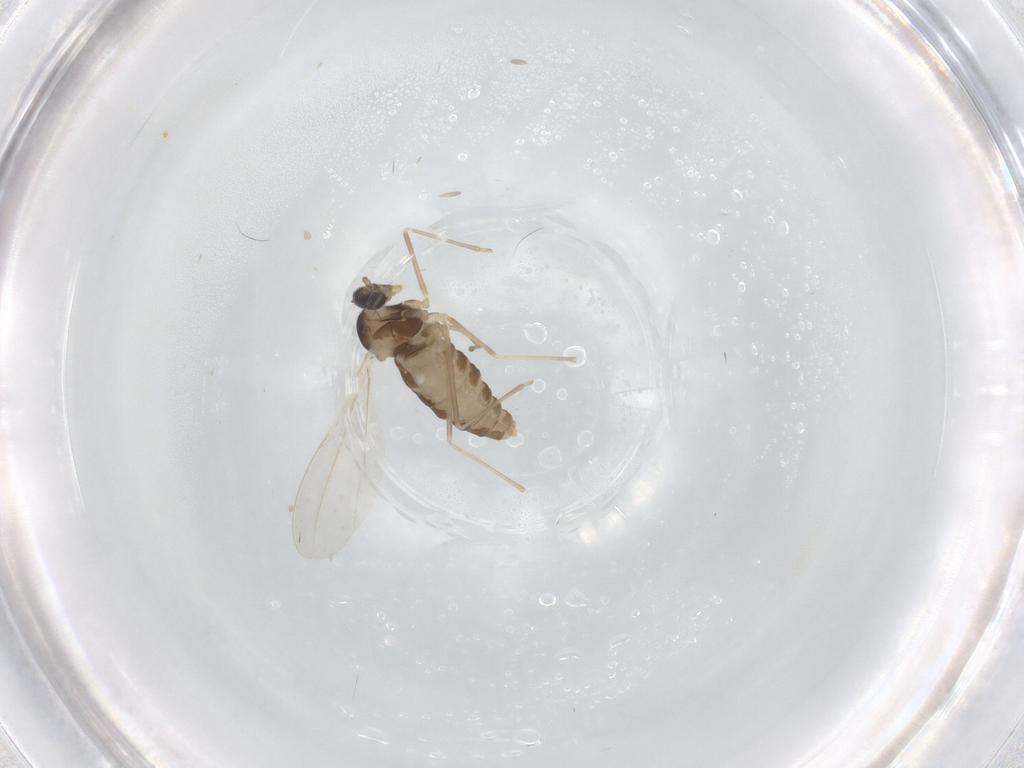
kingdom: Animalia
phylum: Arthropoda
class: Insecta
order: Diptera
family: Cecidomyiidae
